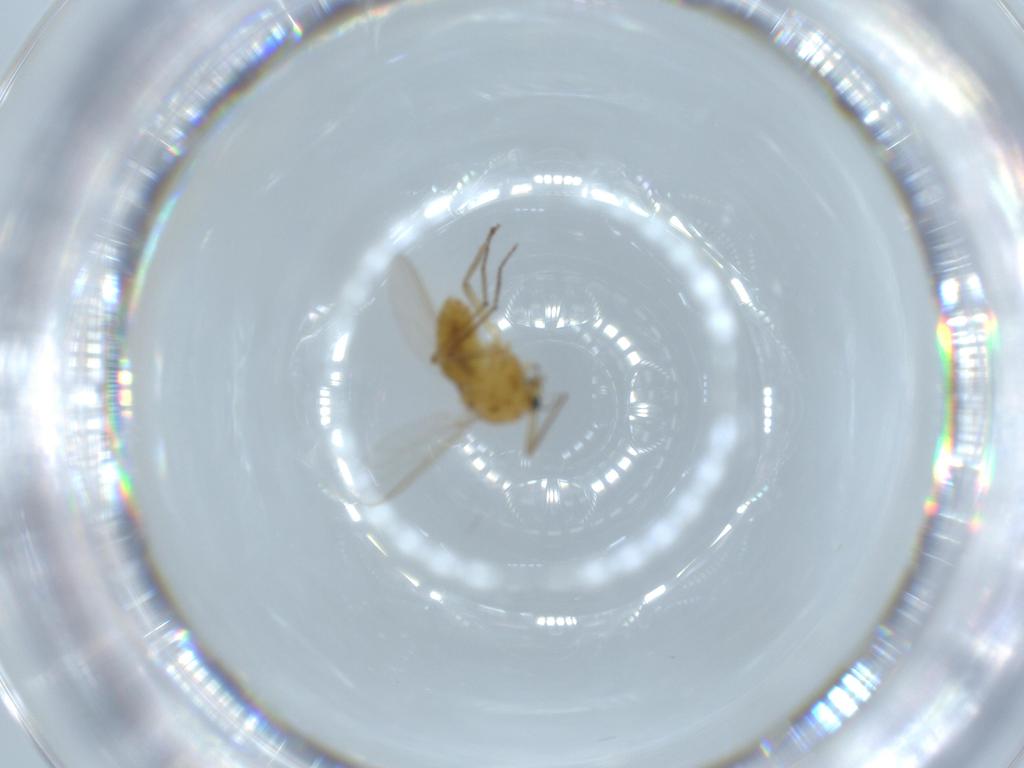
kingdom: Animalia
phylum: Arthropoda
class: Insecta
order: Diptera
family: Chironomidae
